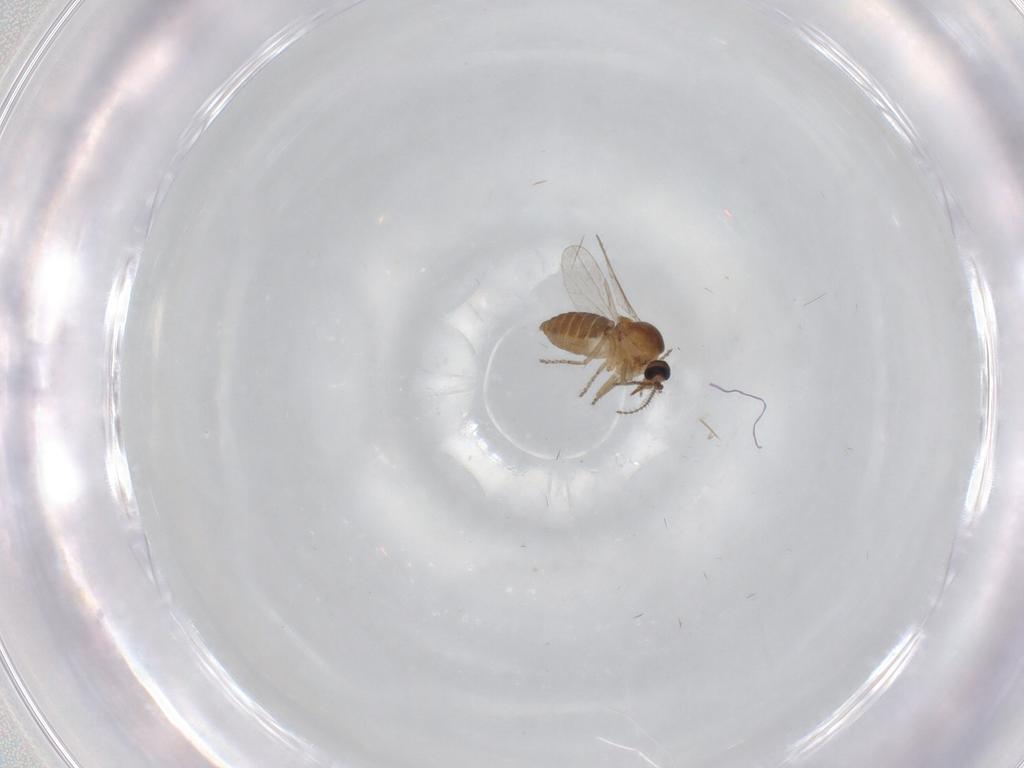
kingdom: Animalia
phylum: Arthropoda
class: Insecta
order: Diptera
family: Ceratopogonidae
